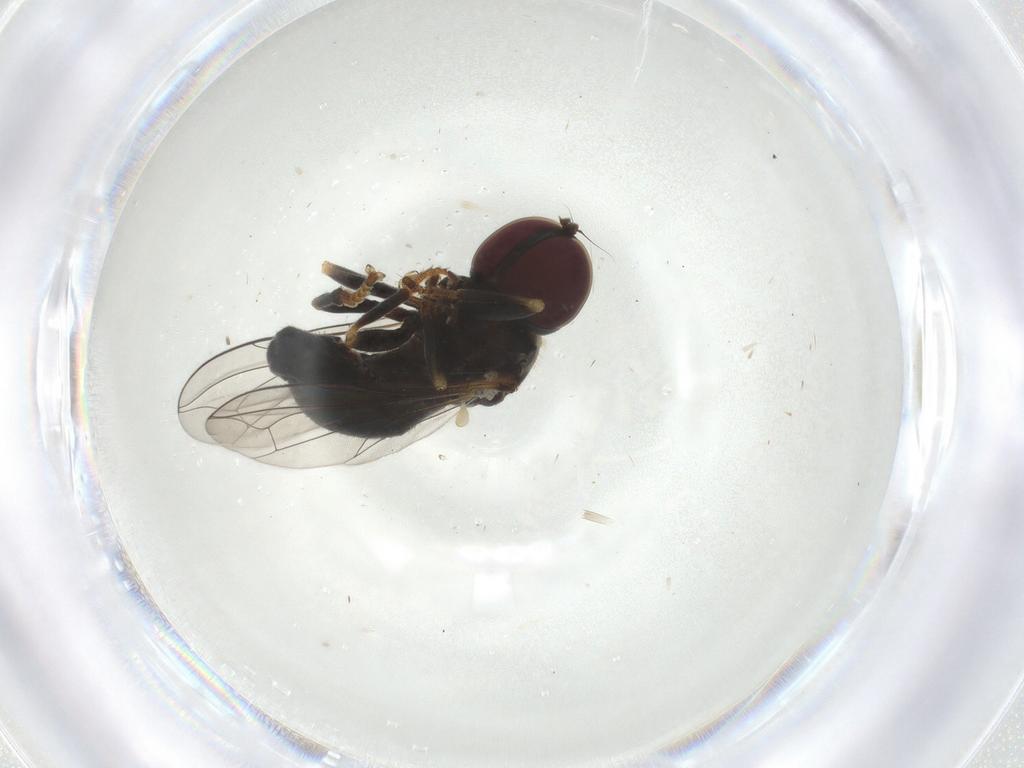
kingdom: Animalia
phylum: Arthropoda
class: Insecta
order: Diptera
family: Pipunculidae
